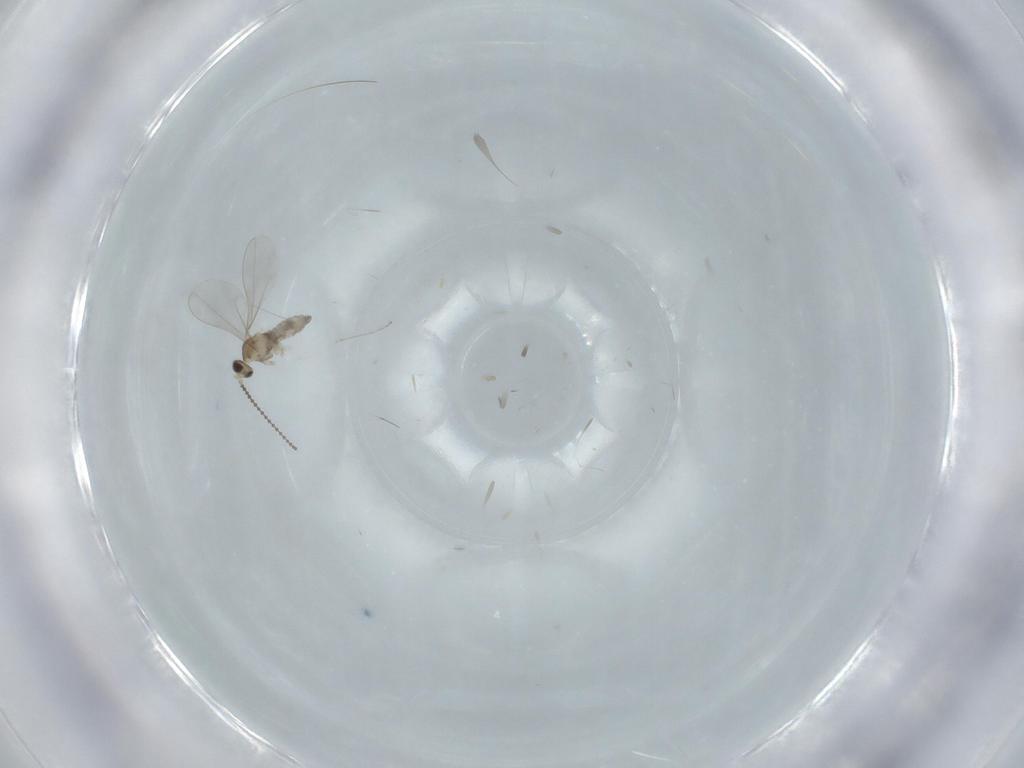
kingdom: Animalia
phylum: Arthropoda
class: Insecta
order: Diptera
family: Cecidomyiidae
